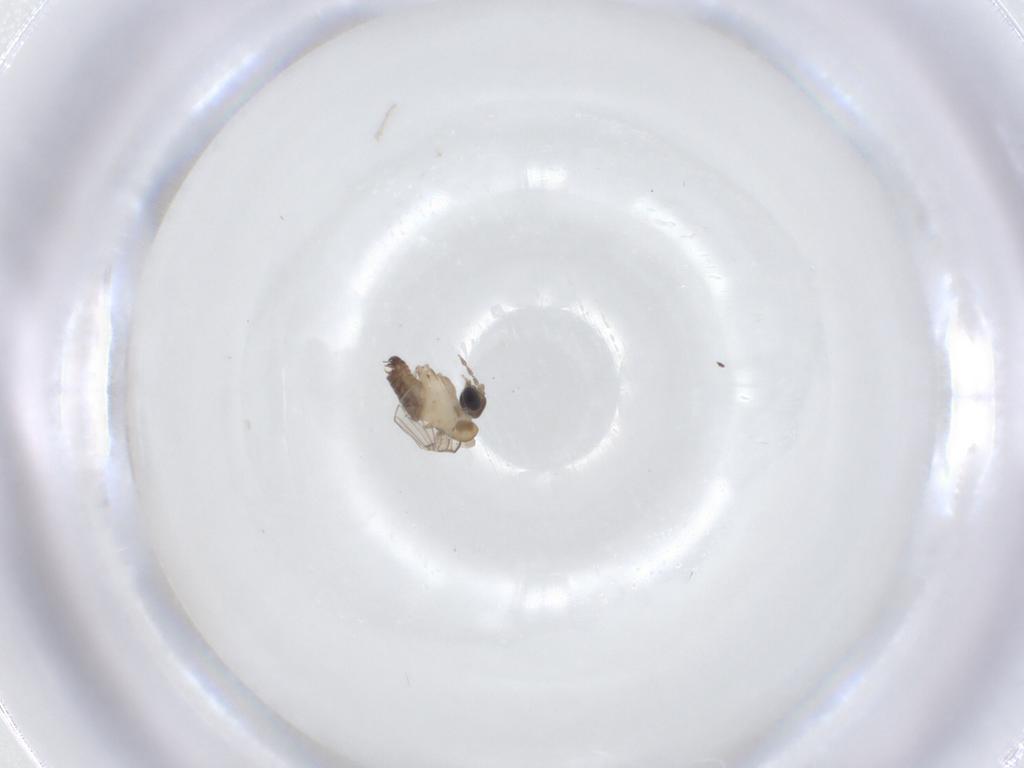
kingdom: Animalia
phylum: Arthropoda
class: Insecta
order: Diptera
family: Psychodidae
